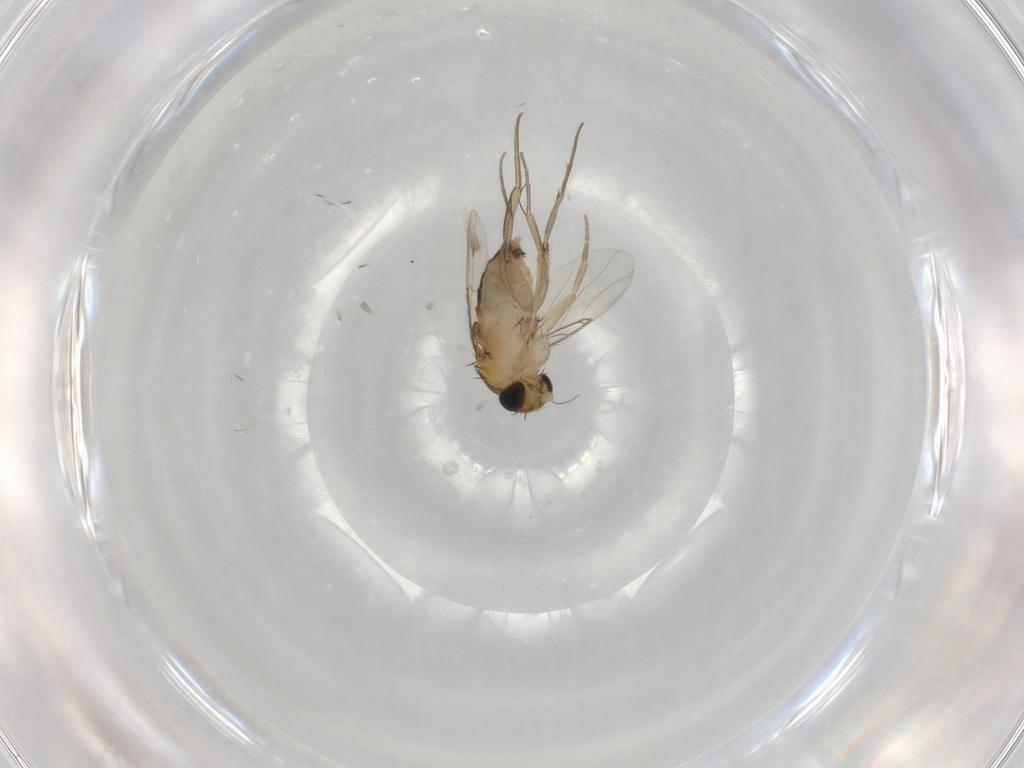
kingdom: Animalia
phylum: Arthropoda
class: Insecta
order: Diptera
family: Phoridae
